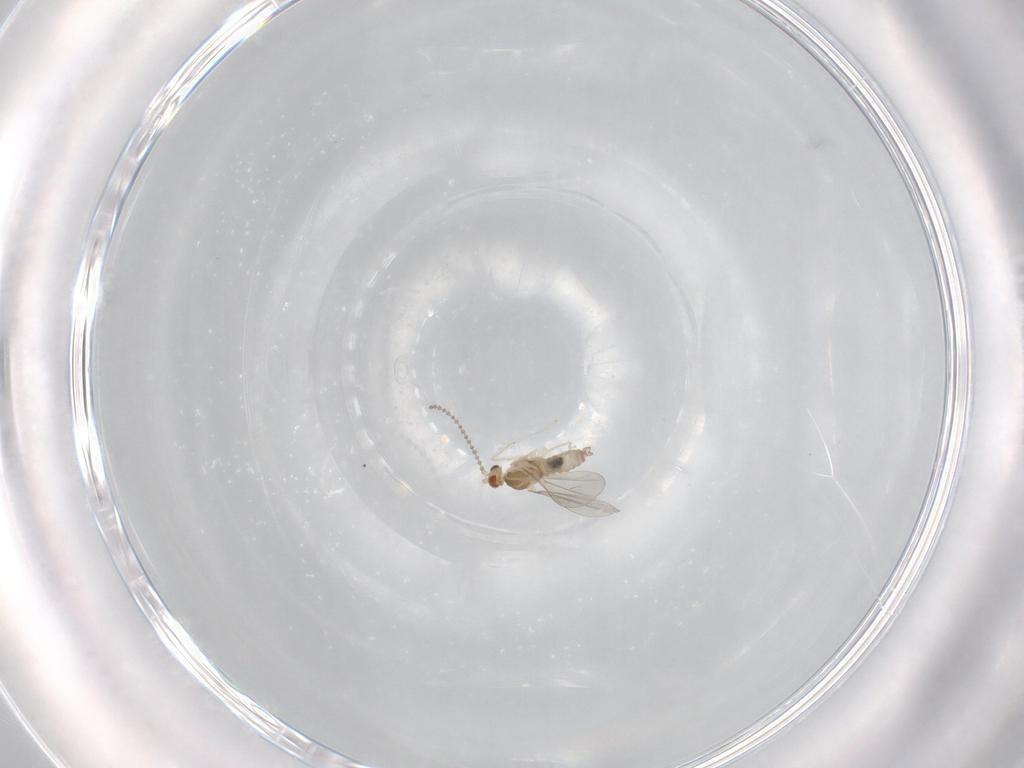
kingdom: Animalia
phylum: Arthropoda
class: Insecta
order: Diptera
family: Cecidomyiidae
